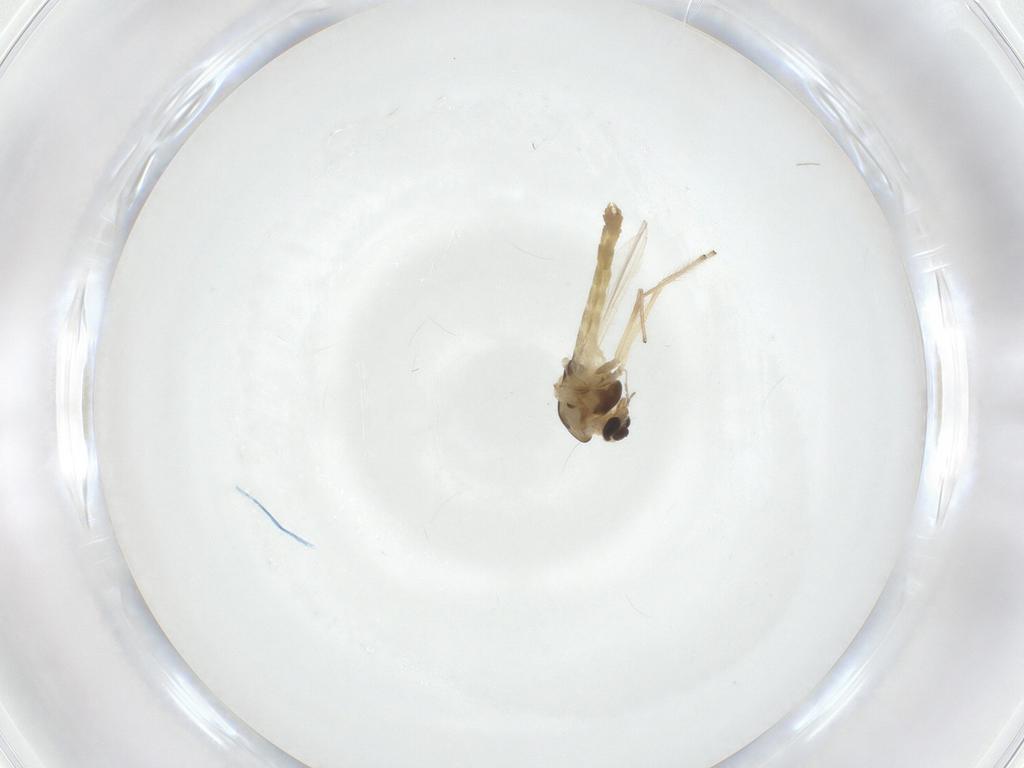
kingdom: Animalia
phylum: Arthropoda
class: Insecta
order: Diptera
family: Chironomidae
